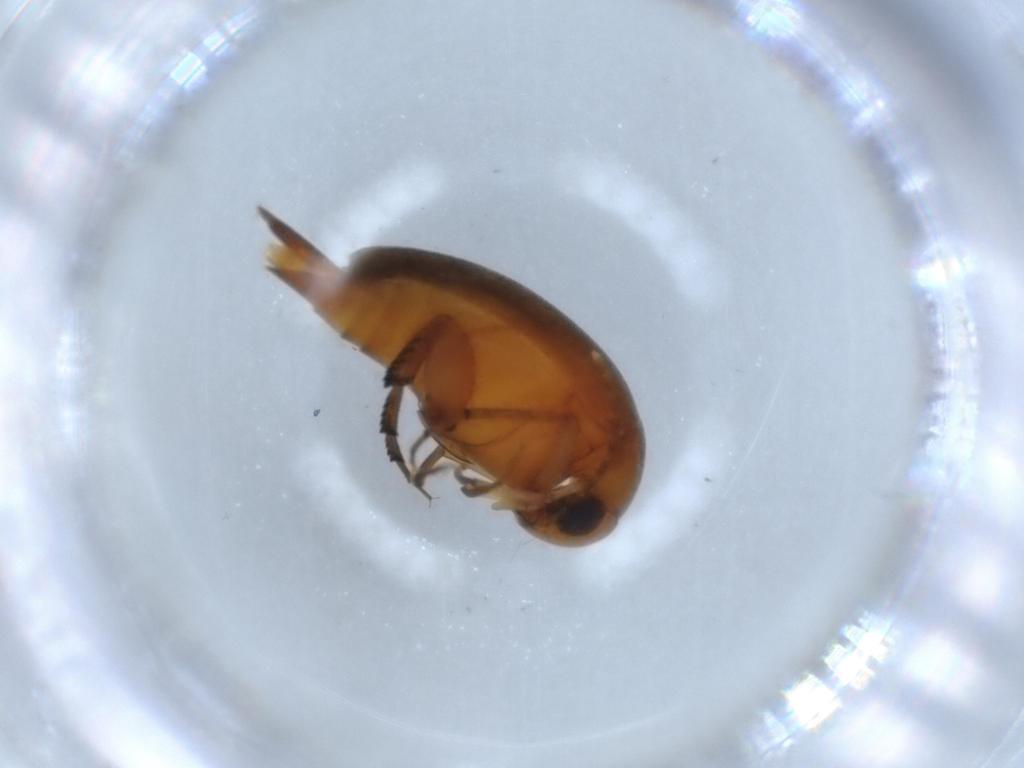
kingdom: Animalia
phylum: Arthropoda
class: Insecta
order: Coleoptera
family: Mordellidae
